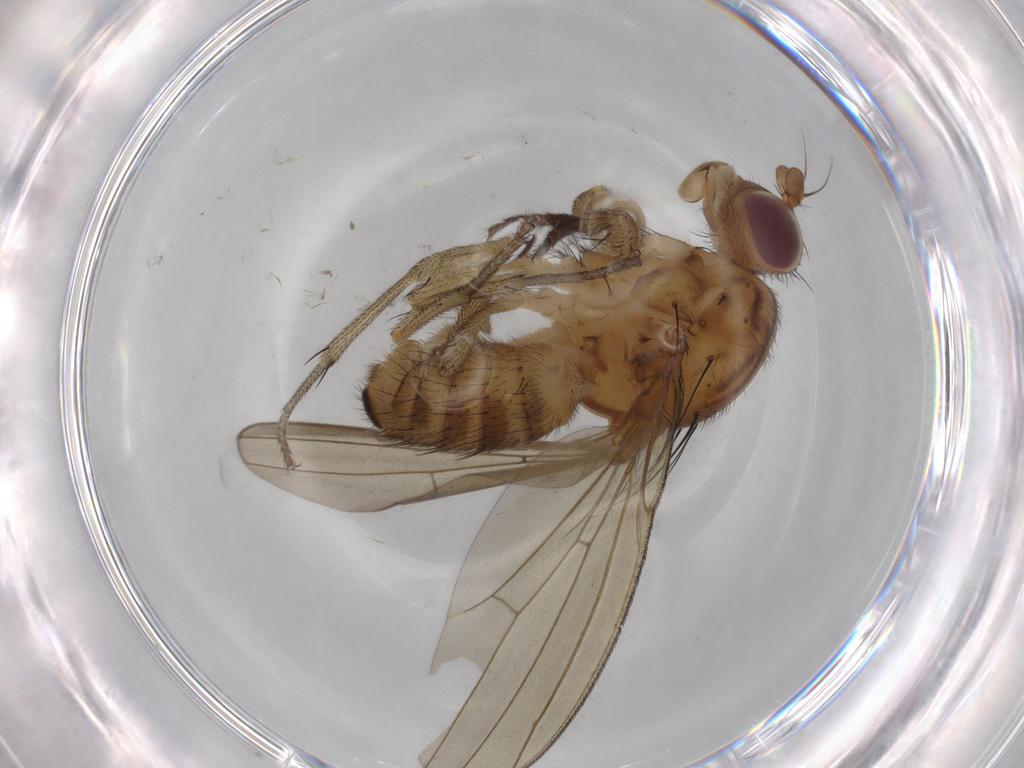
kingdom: Animalia
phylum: Arthropoda
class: Insecta
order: Diptera
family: Lauxaniidae
